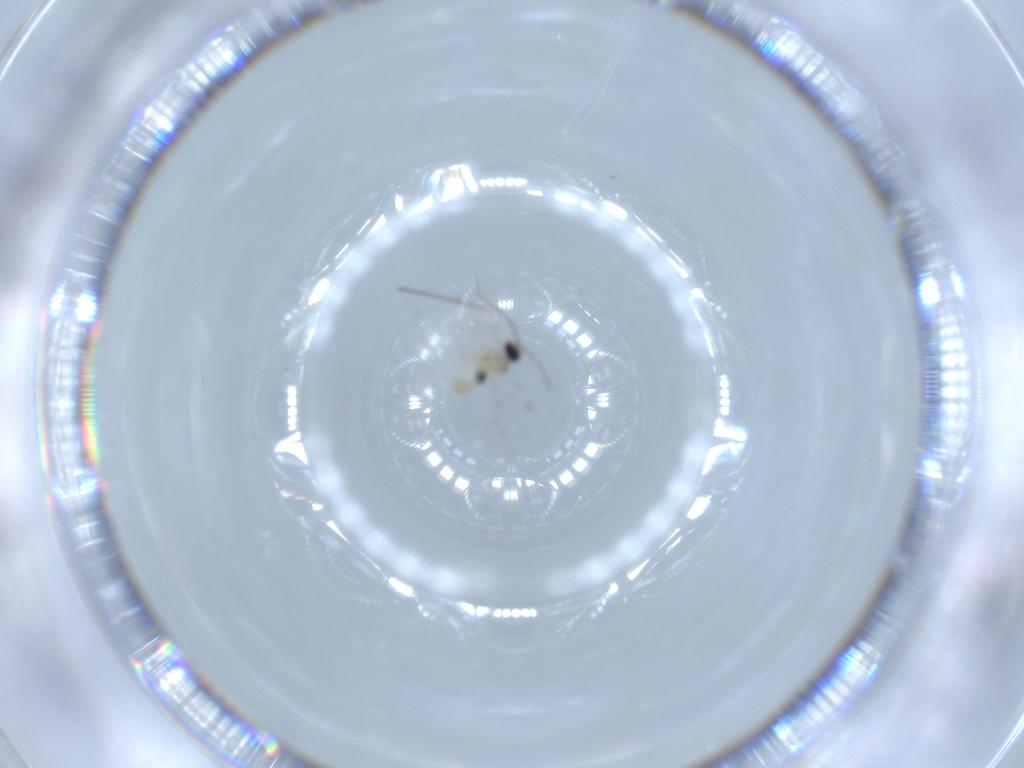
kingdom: Animalia
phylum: Arthropoda
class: Insecta
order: Diptera
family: Cecidomyiidae
